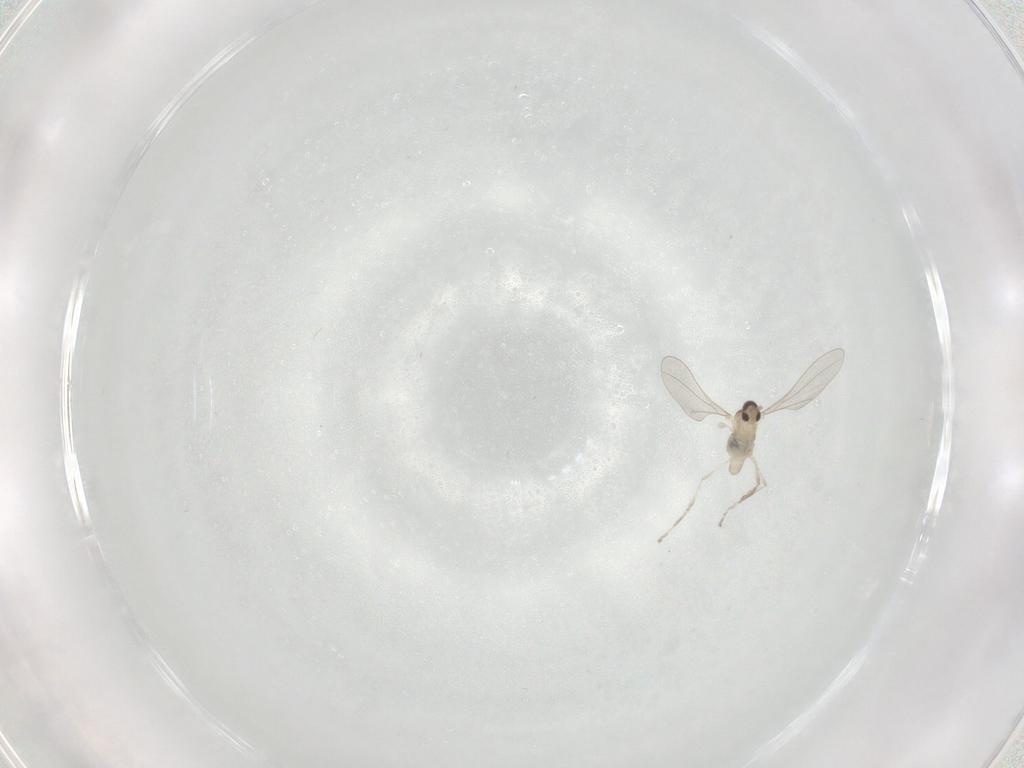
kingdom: Animalia
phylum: Arthropoda
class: Insecta
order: Diptera
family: Cecidomyiidae
